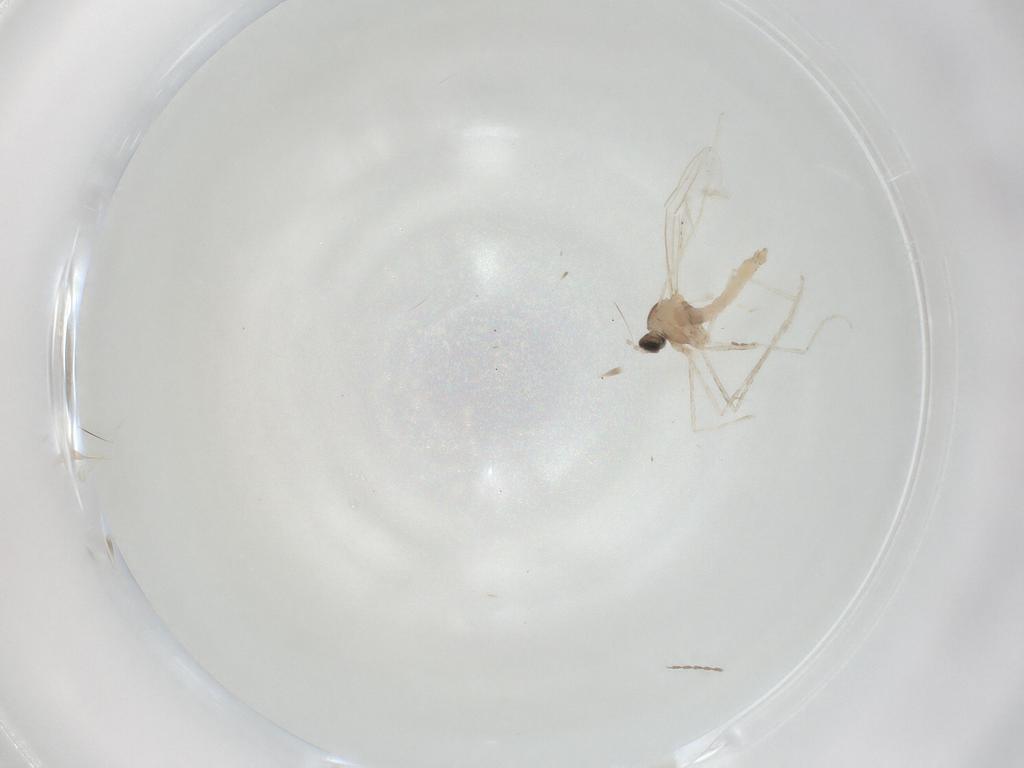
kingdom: Animalia
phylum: Arthropoda
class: Insecta
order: Diptera
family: Cecidomyiidae
